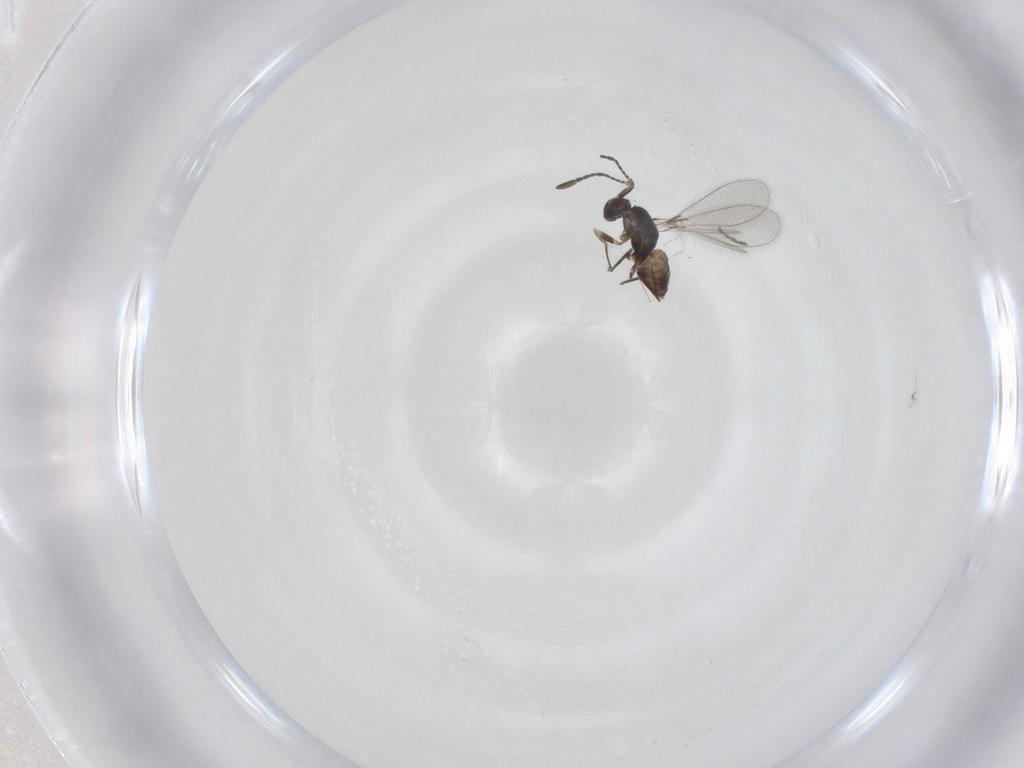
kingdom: Animalia
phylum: Arthropoda
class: Insecta
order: Hymenoptera
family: Mymaridae
